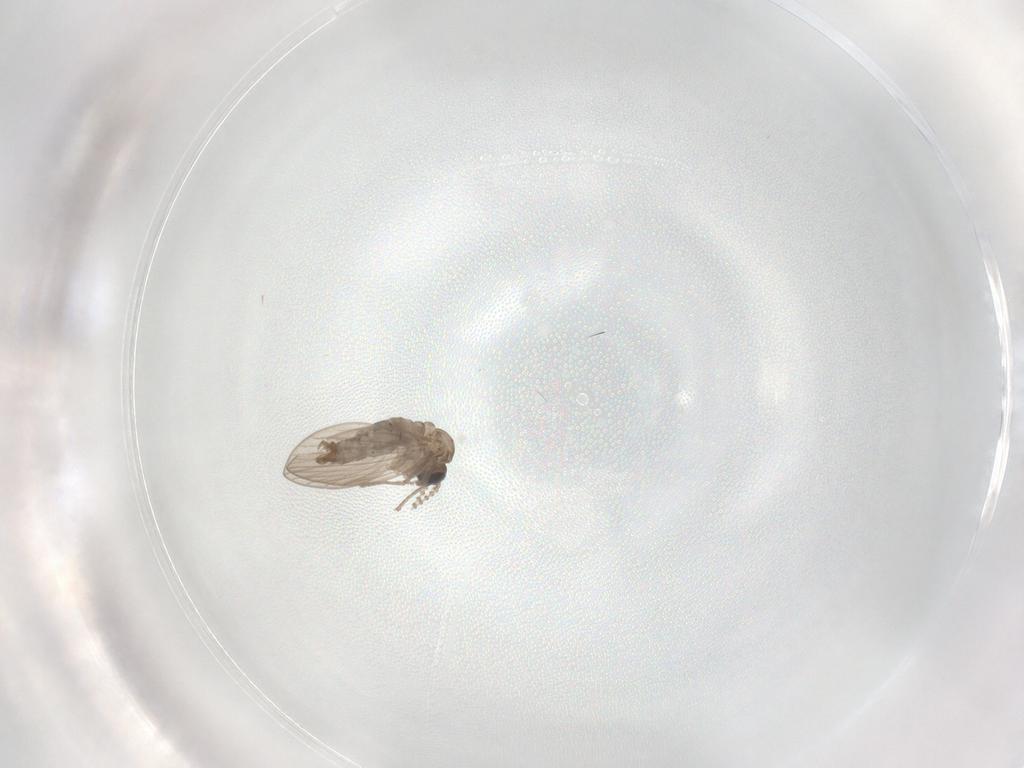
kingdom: Animalia
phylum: Arthropoda
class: Insecta
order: Diptera
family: Psychodidae
